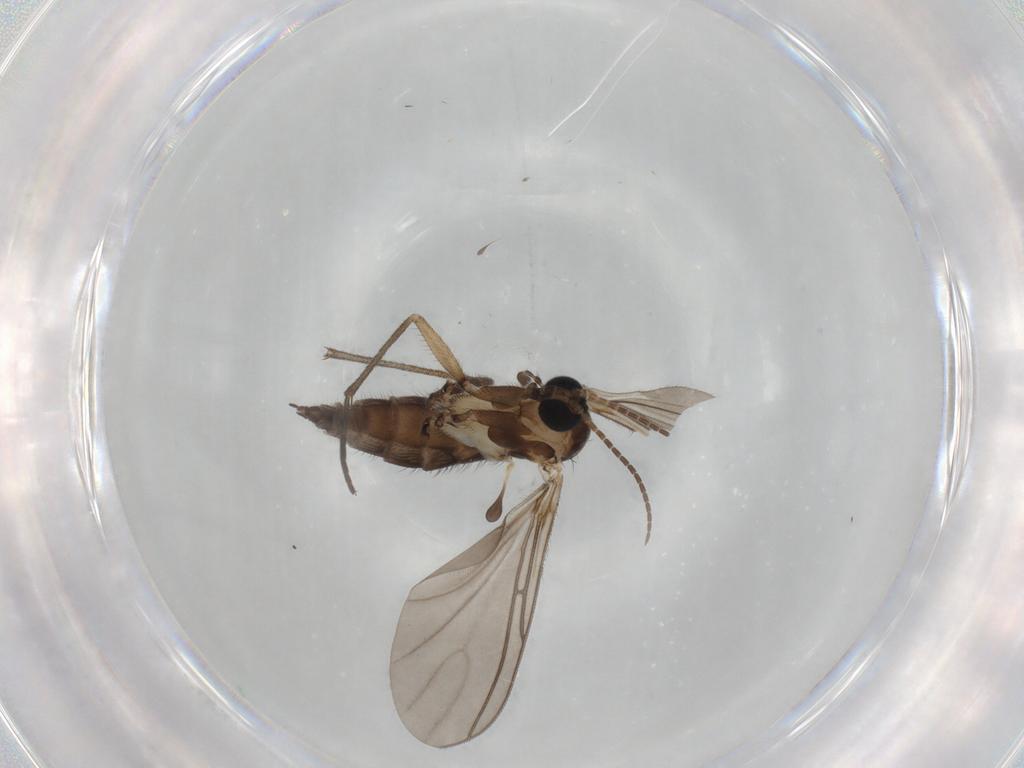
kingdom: Animalia
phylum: Arthropoda
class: Insecta
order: Diptera
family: Sciaridae
